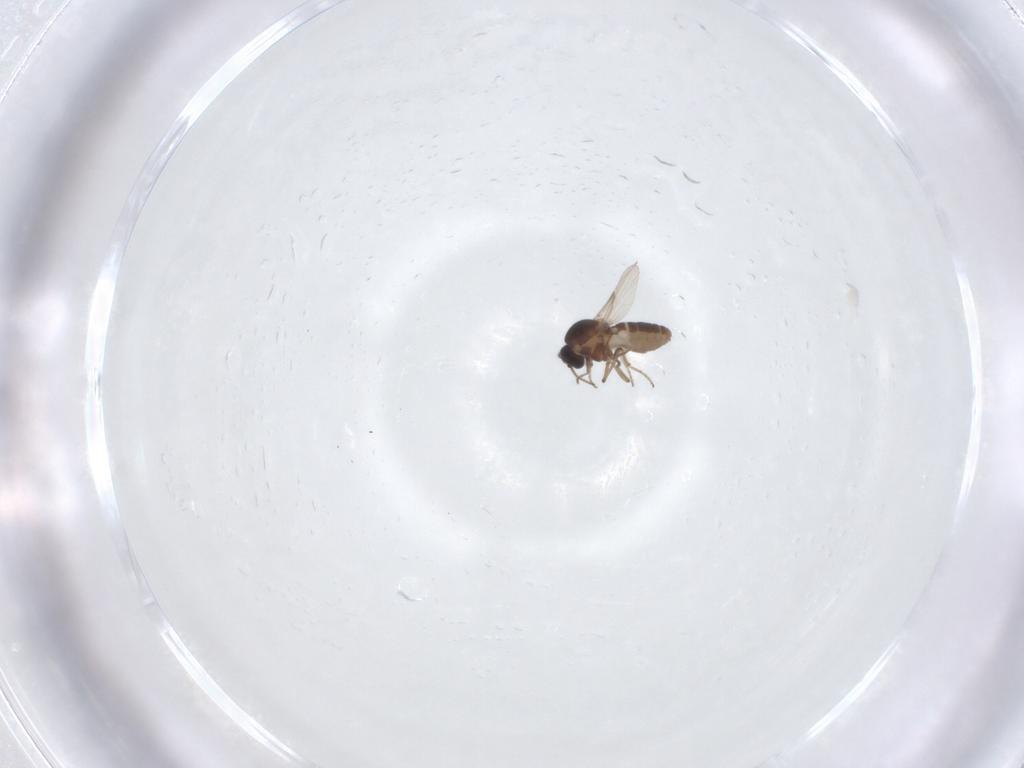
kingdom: Animalia
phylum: Arthropoda
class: Insecta
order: Diptera
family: Ceratopogonidae
